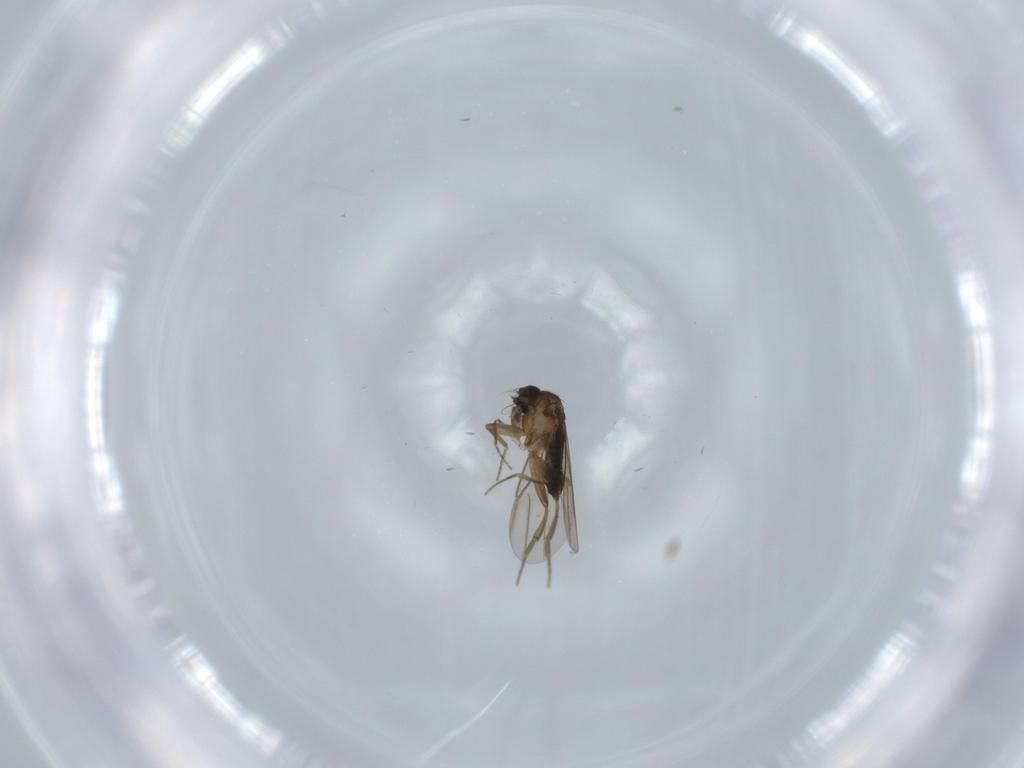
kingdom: Animalia
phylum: Arthropoda
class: Insecta
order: Diptera
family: Phoridae
